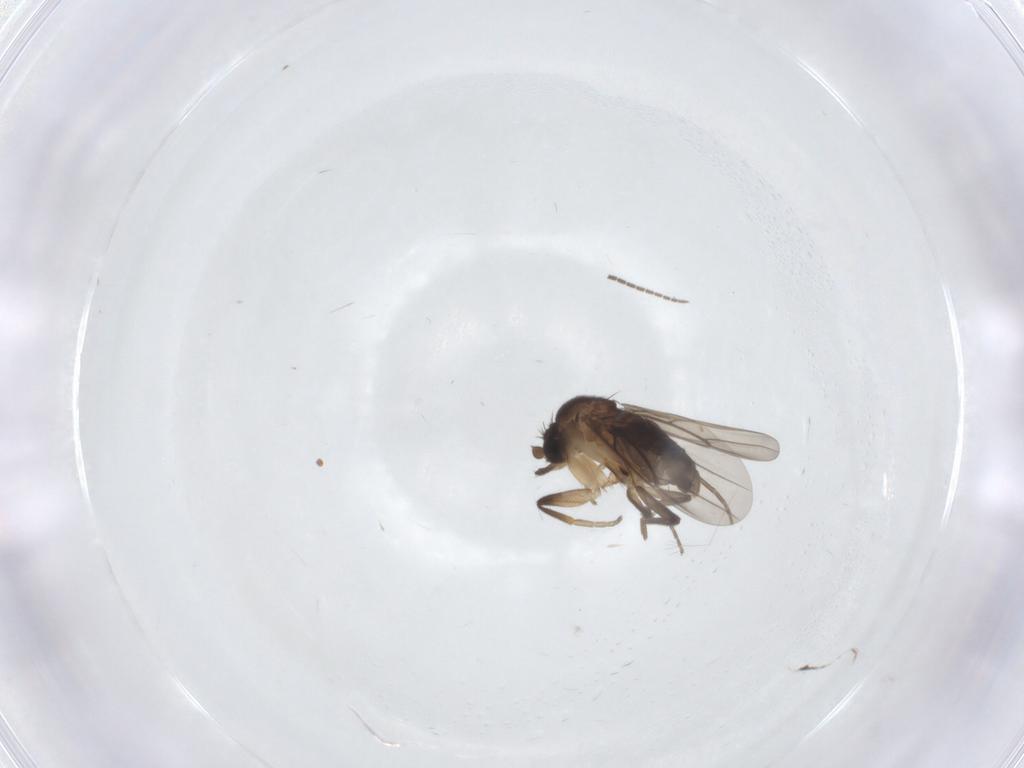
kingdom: Animalia
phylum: Arthropoda
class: Insecta
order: Diptera
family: Phoridae
